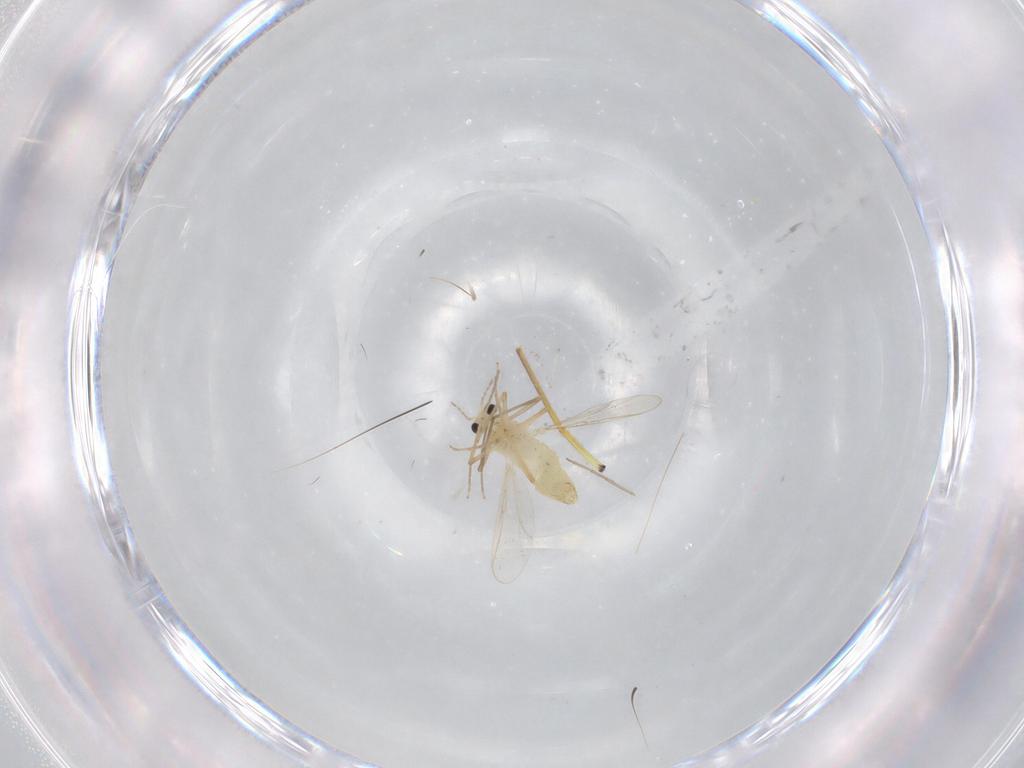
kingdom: Animalia
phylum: Arthropoda
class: Insecta
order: Diptera
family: Chironomidae
